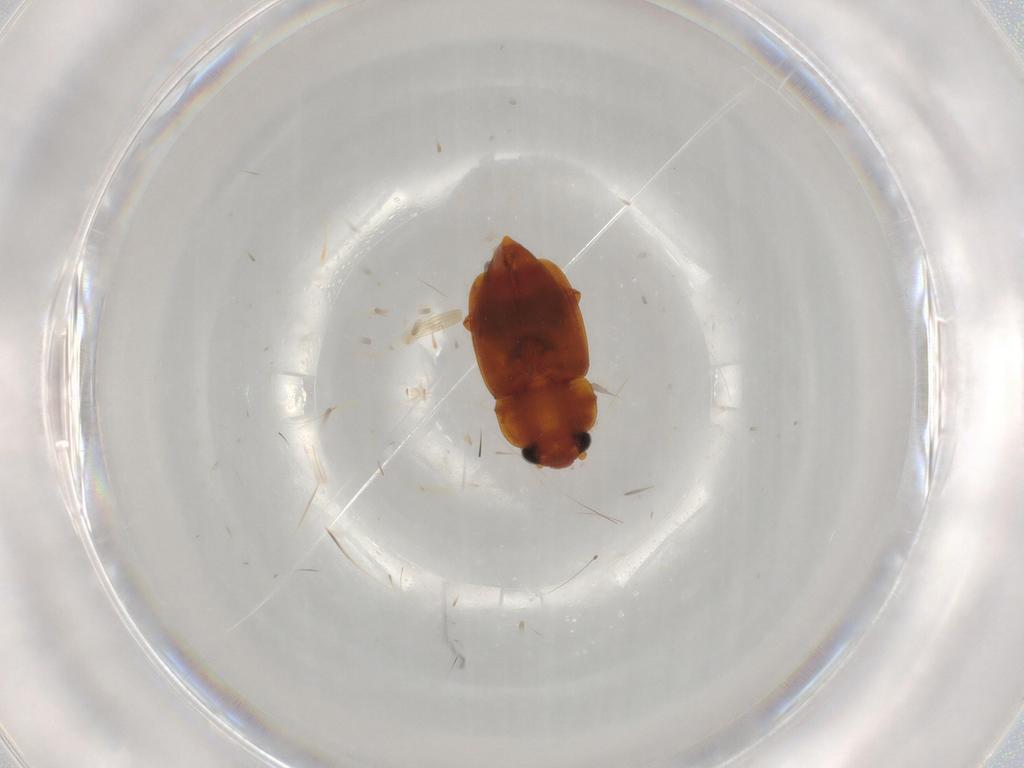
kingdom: Animalia
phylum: Arthropoda
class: Insecta
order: Coleoptera
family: Nitidulidae
